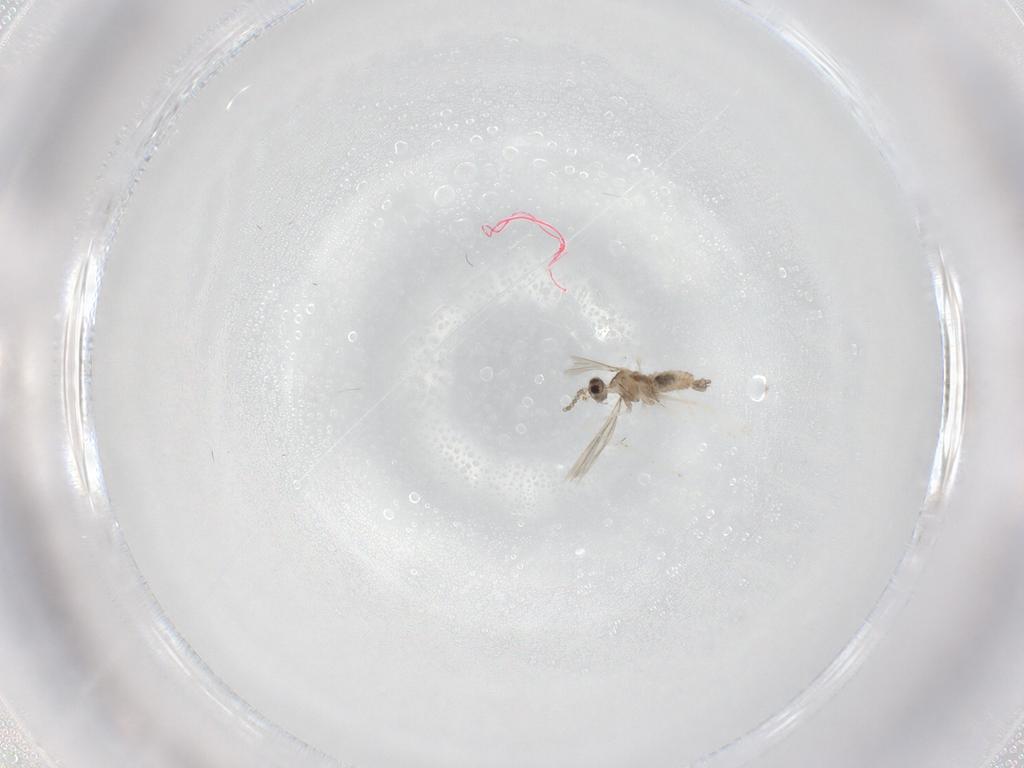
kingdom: Animalia
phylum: Arthropoda
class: Insecta
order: Diptera
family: Cecidomyiidae
